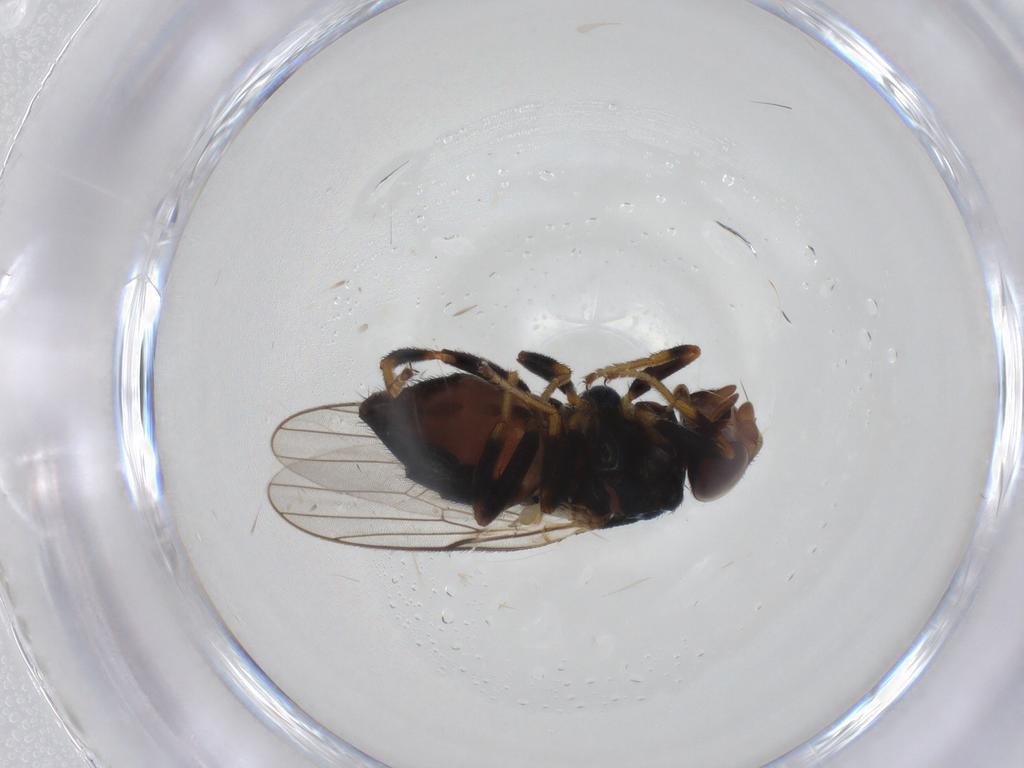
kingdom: Animalia
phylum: Arthropoda
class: Insecta
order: Diptera
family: Chloropidae
